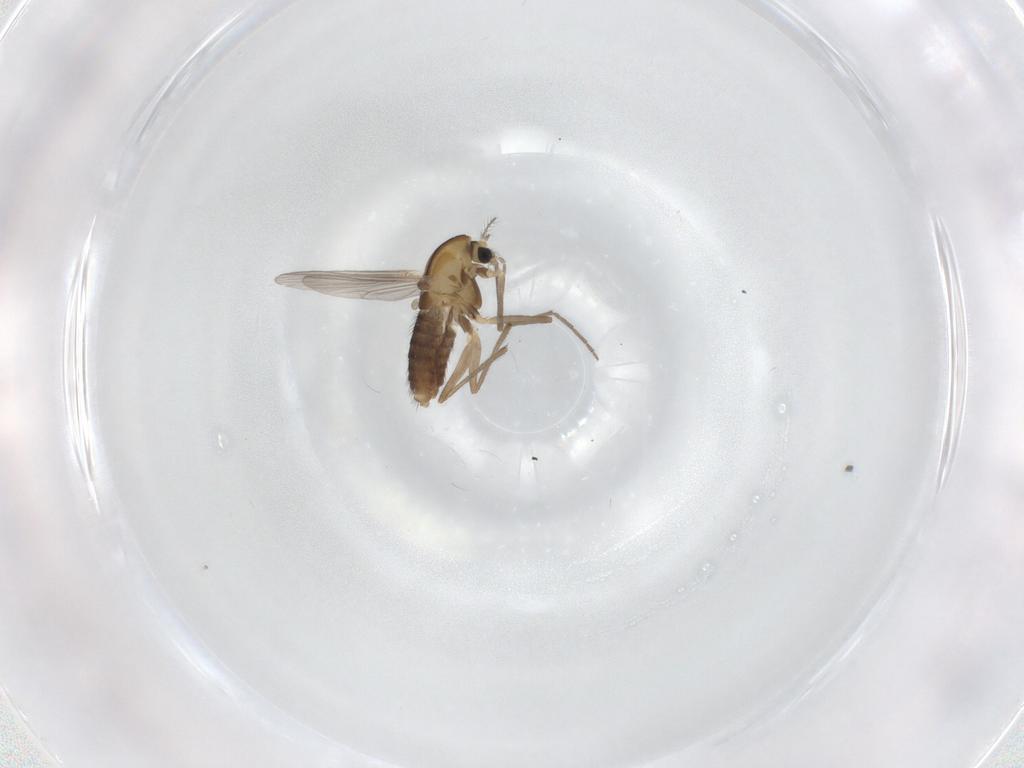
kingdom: Animalia
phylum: Arthropoda
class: Insecta
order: Diptera
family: Chironomidae
